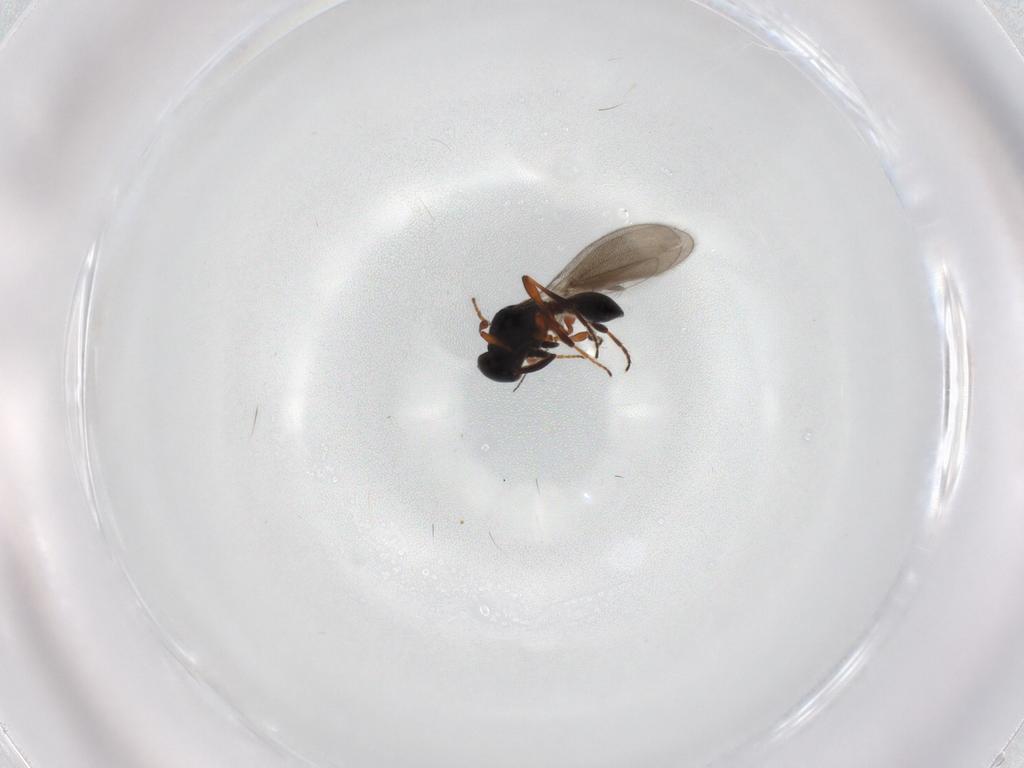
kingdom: Animalia
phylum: Arthropoda
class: Insecta
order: Hymenoptera
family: Platygastridae
